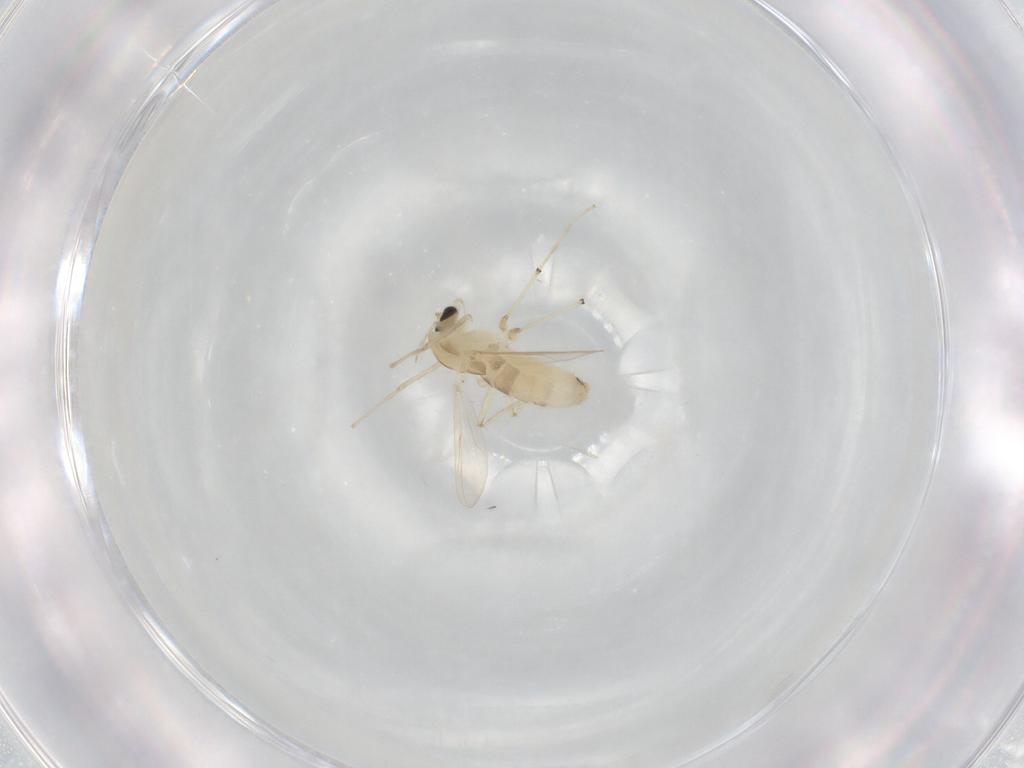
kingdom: Animalia
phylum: Arthropoda
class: Insecta
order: Diptera
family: Chironomidae
